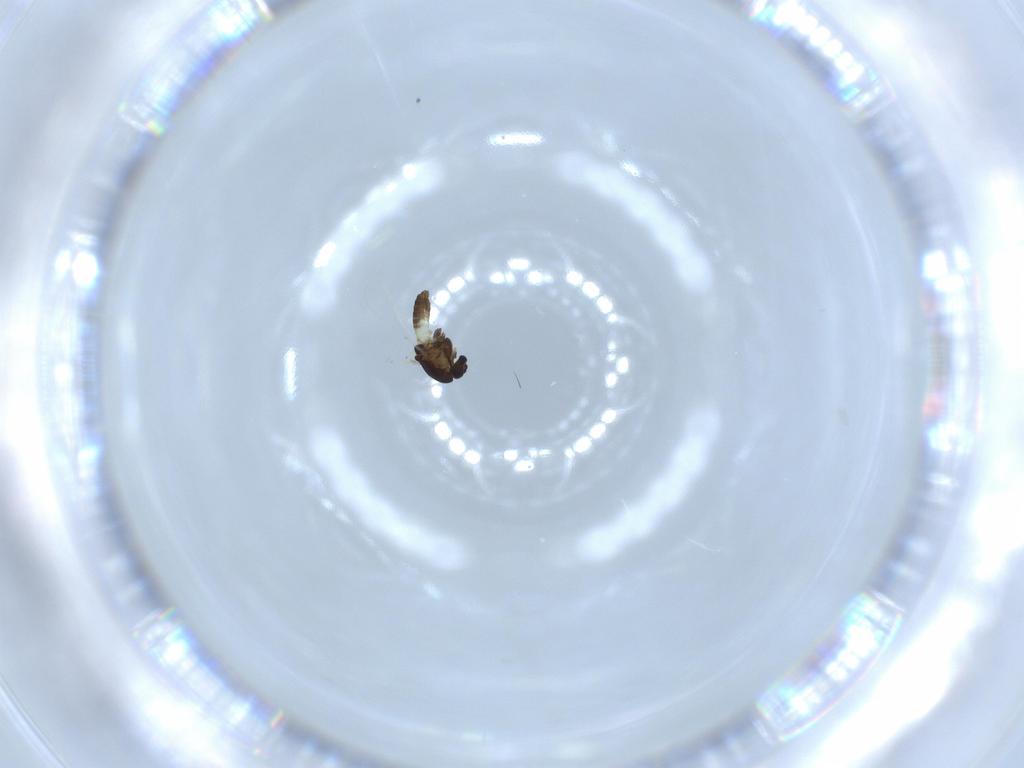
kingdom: Animalia
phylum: Arthropoda
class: Insecta
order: Diptera
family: Chironomidae
